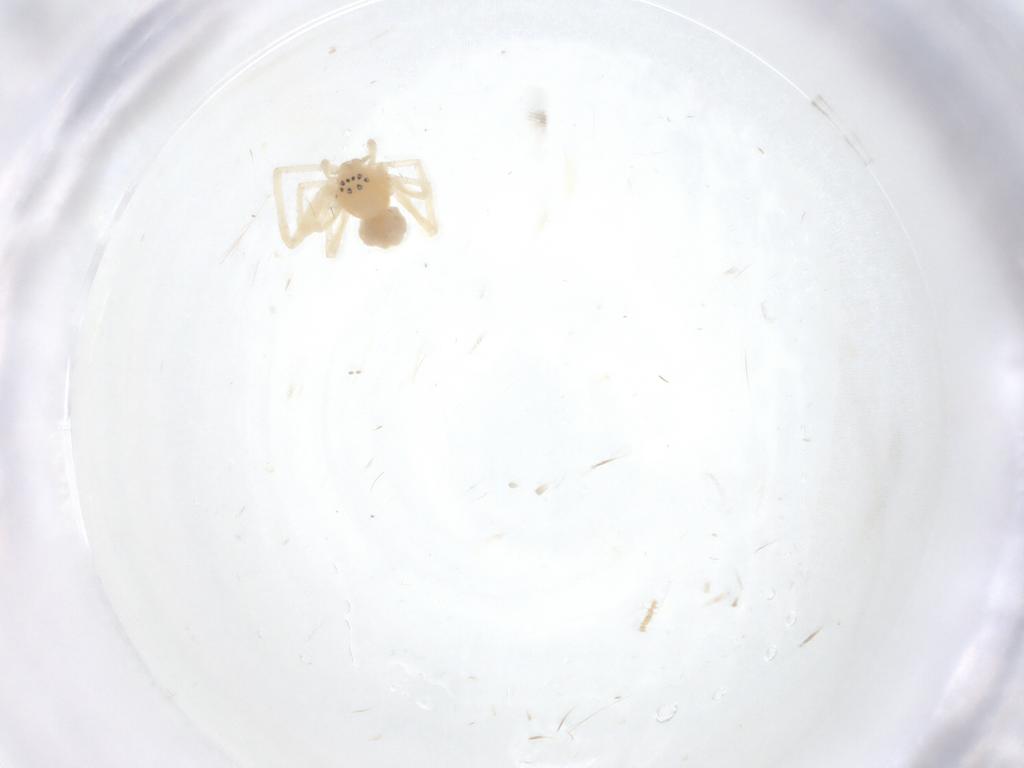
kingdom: Animalia
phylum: Arthropoda
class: Arachnida
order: Araneae
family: Anyphaenidae
